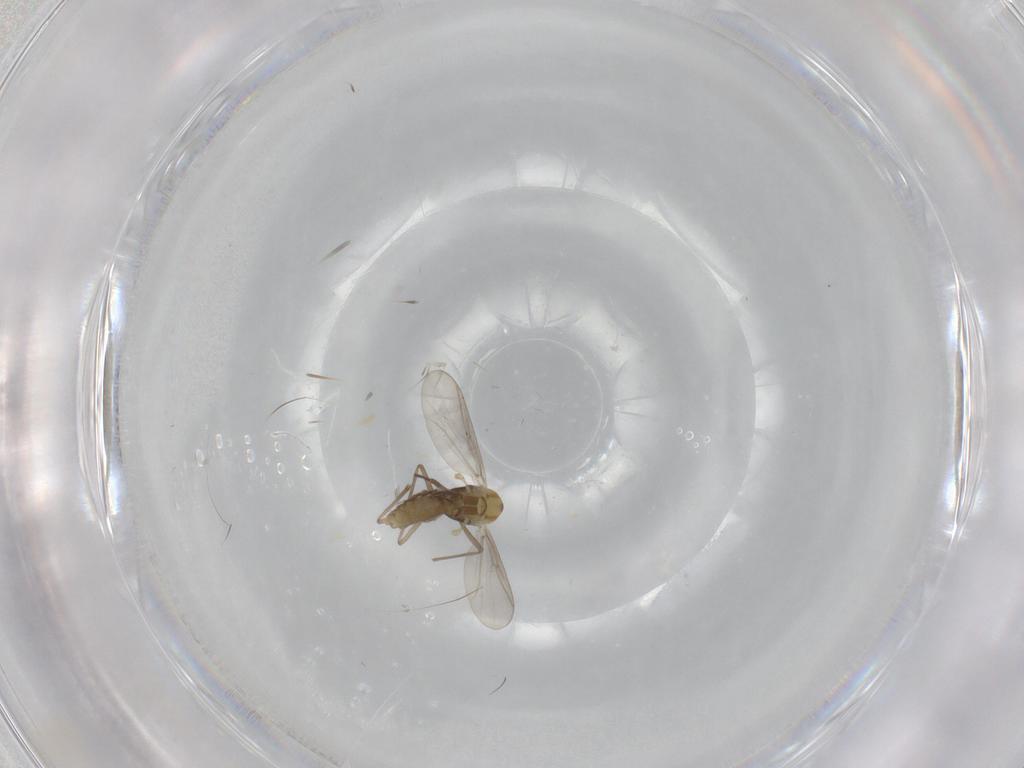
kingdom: Animalia
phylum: Arthropoda
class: Insecta
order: Diptera
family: Chironomidae
